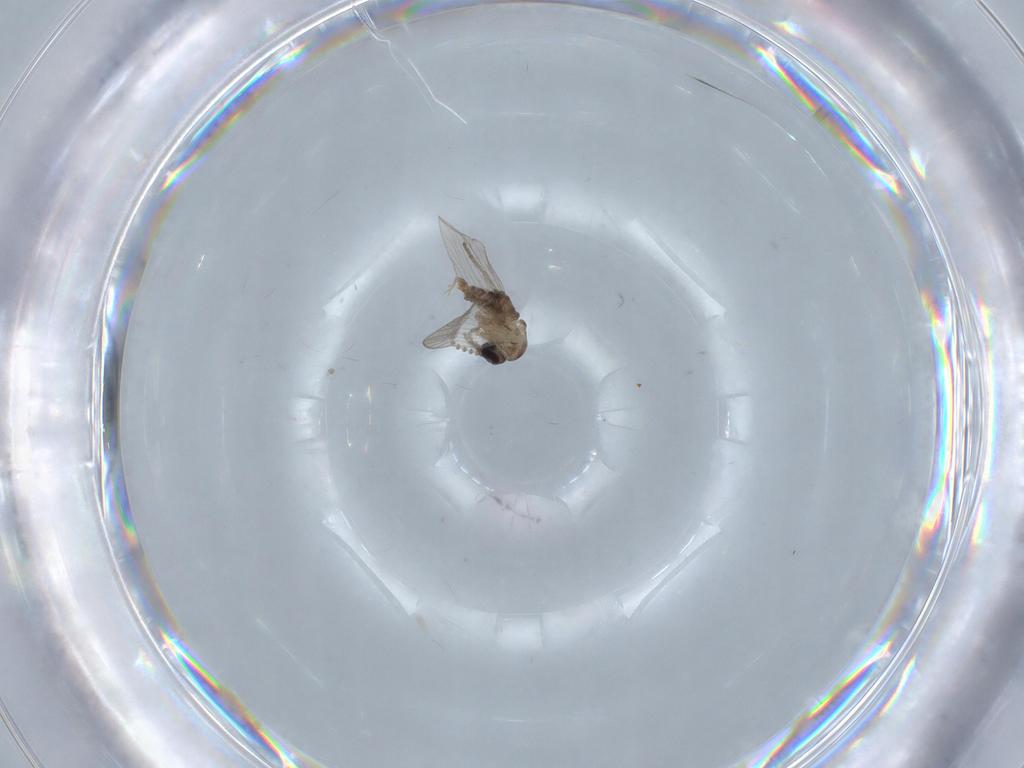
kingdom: Animalia
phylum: Arthropoda
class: Insecta
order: Diptera
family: Psychodidae
